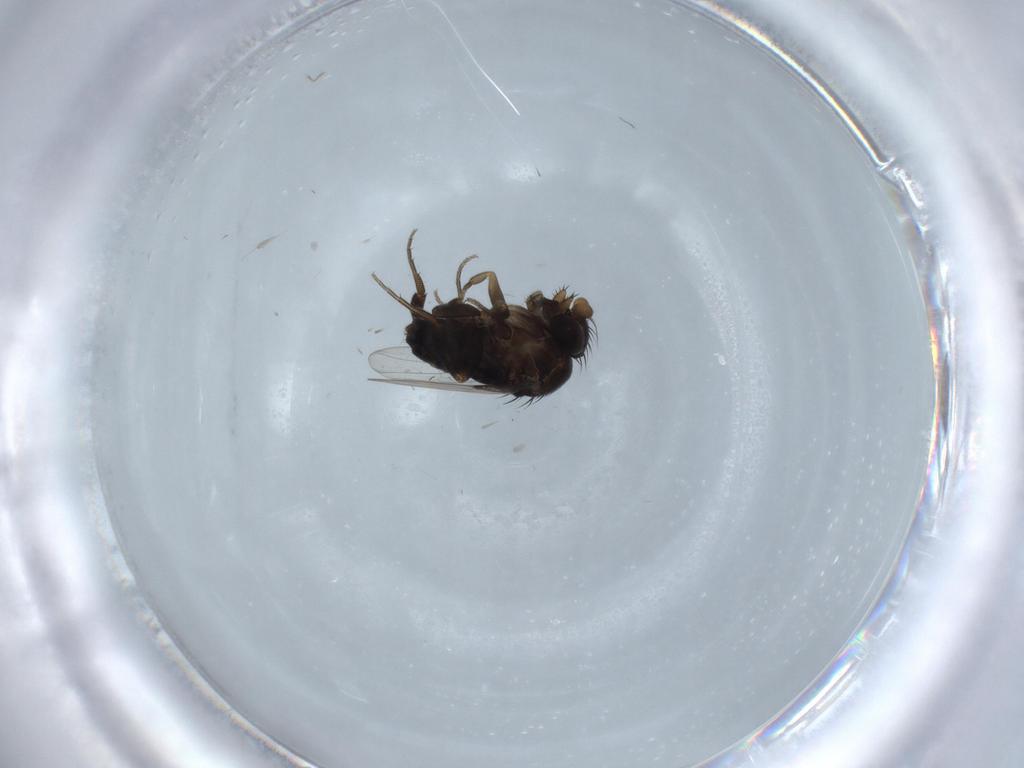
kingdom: Animalia
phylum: Arthropoda
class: Insecta
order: Diptera
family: Phoridae
